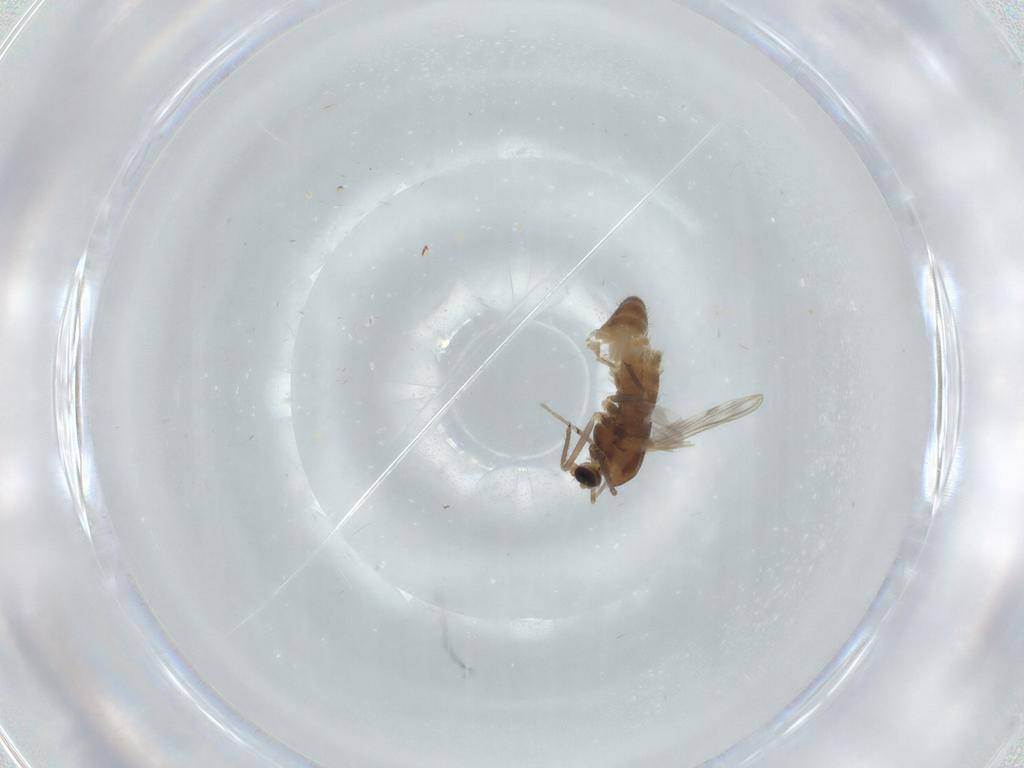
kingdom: Animalia
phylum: Arthropoda
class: Insecta
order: Diptera
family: Chironomidae
